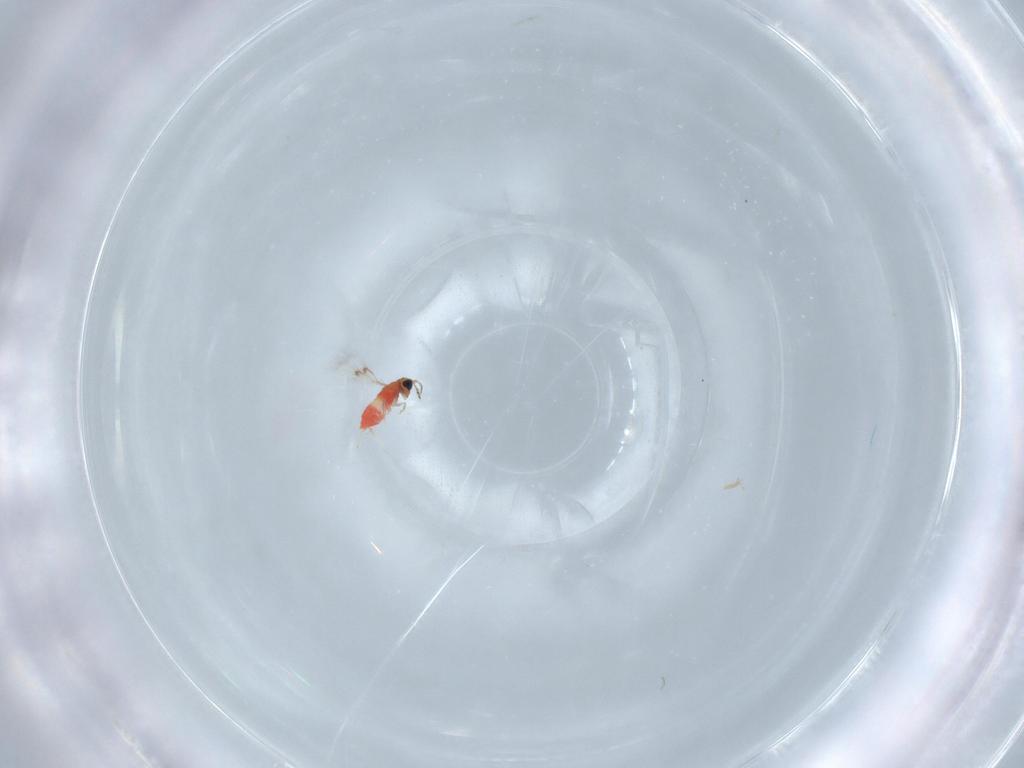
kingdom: Animalia
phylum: Arthropoda
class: Insecta
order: Hymenoptera
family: Trichogrammatidae
